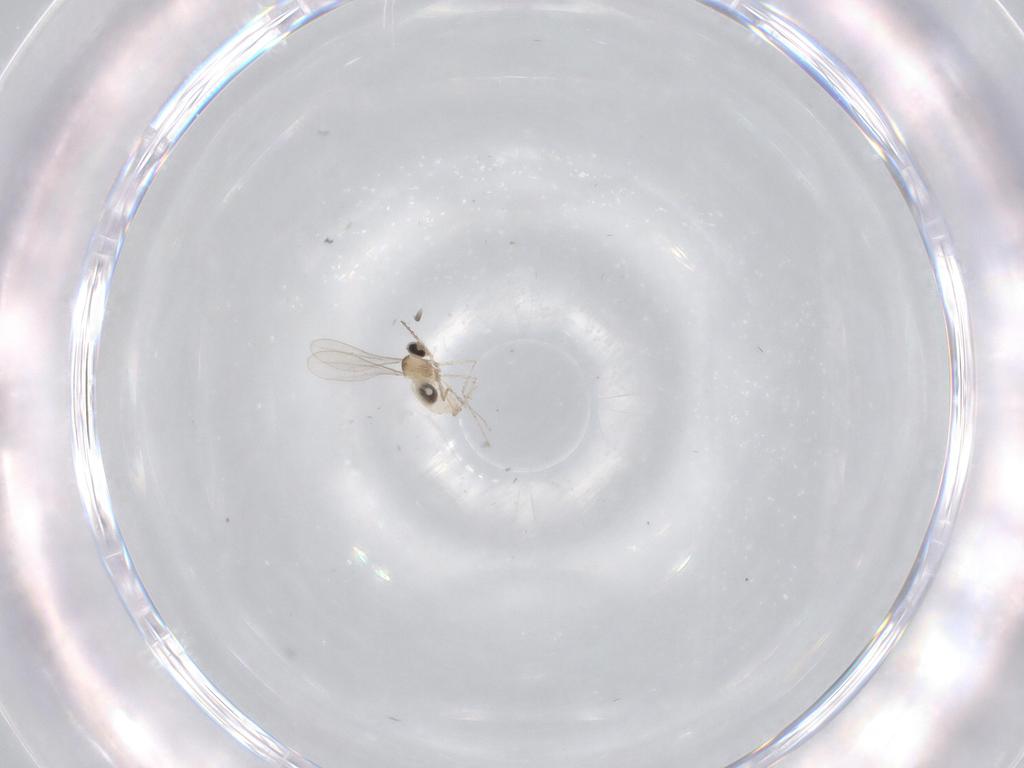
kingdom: Animalia
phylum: Arthropoda
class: Insecta
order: Diptera
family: Cecidomyiidae
